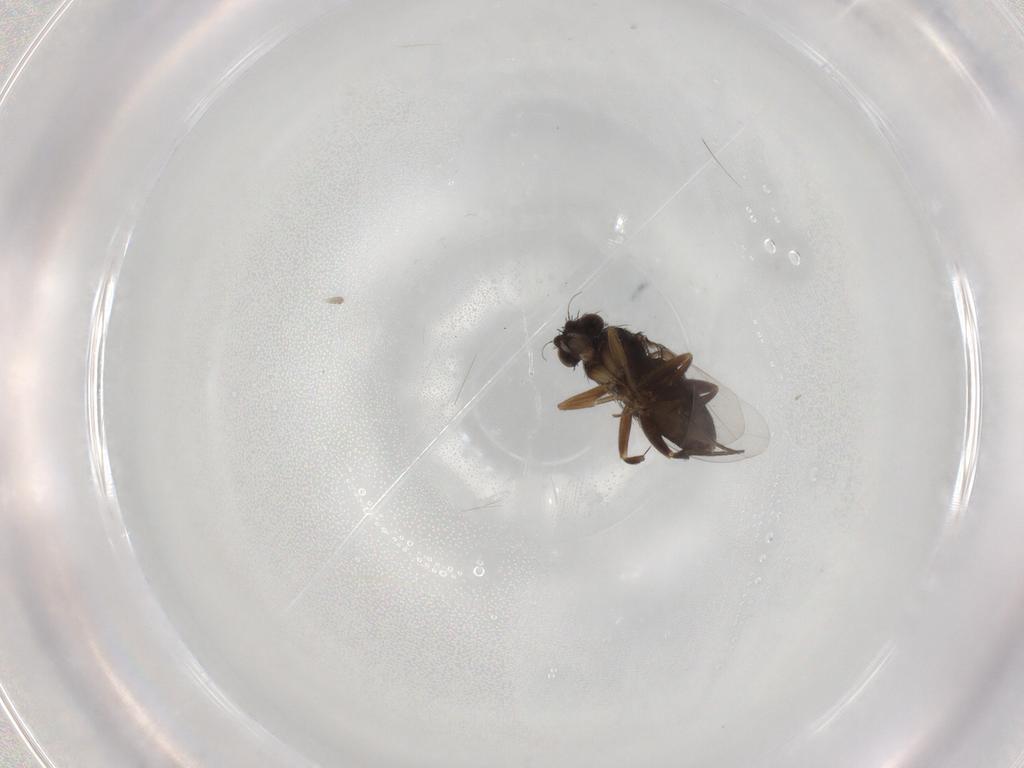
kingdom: Animalia
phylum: Arthropoda
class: Insecta
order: Diptera
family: Phoridae
